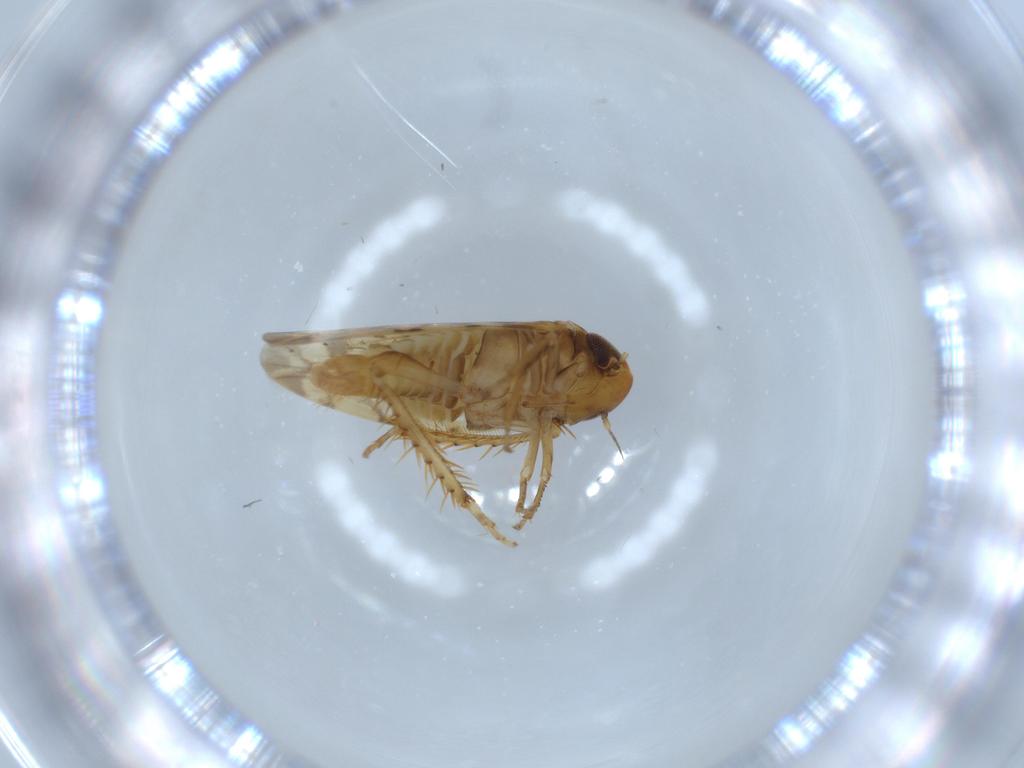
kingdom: Animalia
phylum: Arthropoda
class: Insecta
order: Hemiptera
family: Cicadellidae
